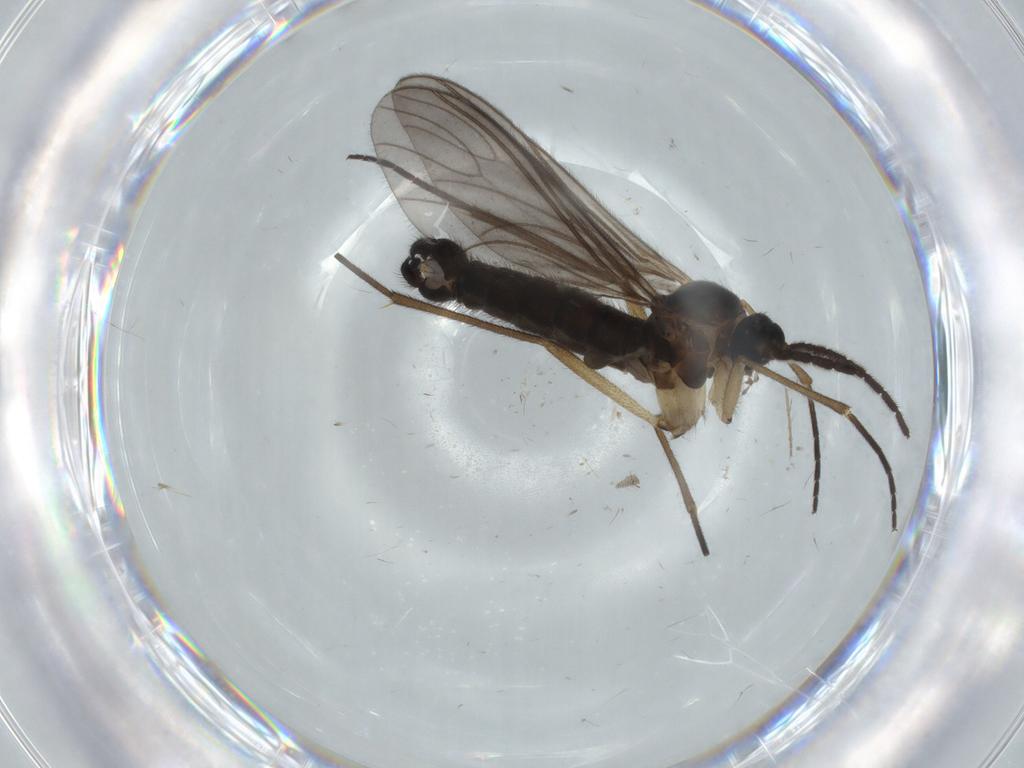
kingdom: Animalia
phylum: Arthropoda
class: Insecta
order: Diptera
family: Sciaridae
